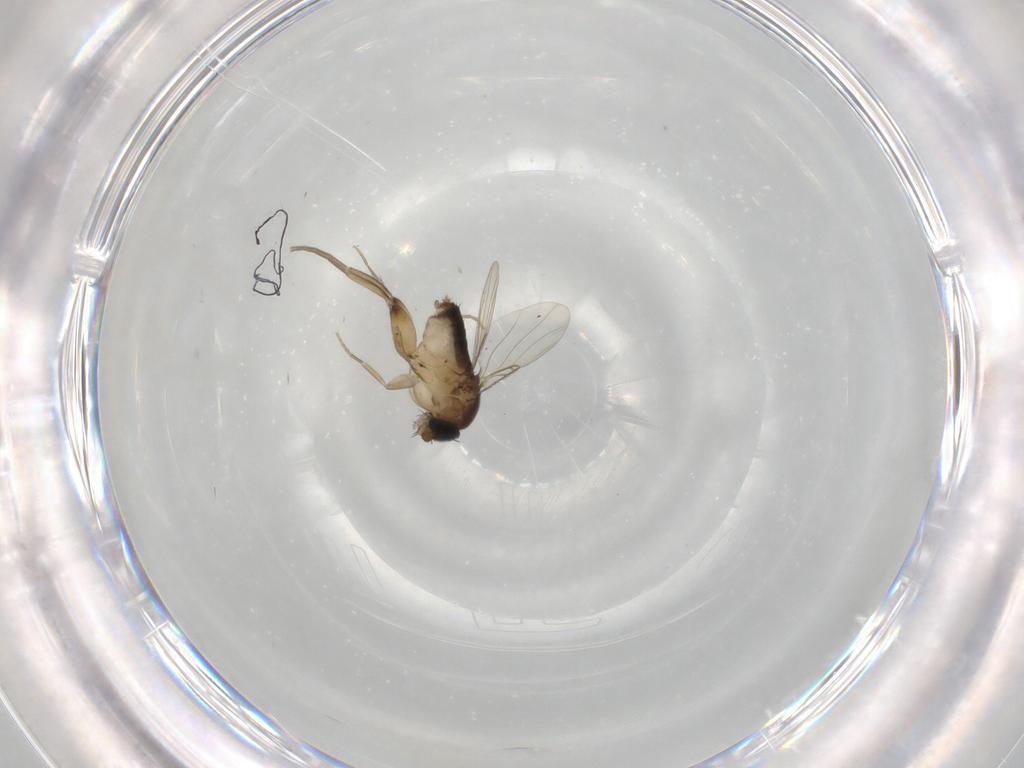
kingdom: Animalia
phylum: Arthropoda
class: Insecta
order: Diptera
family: Phoridae
